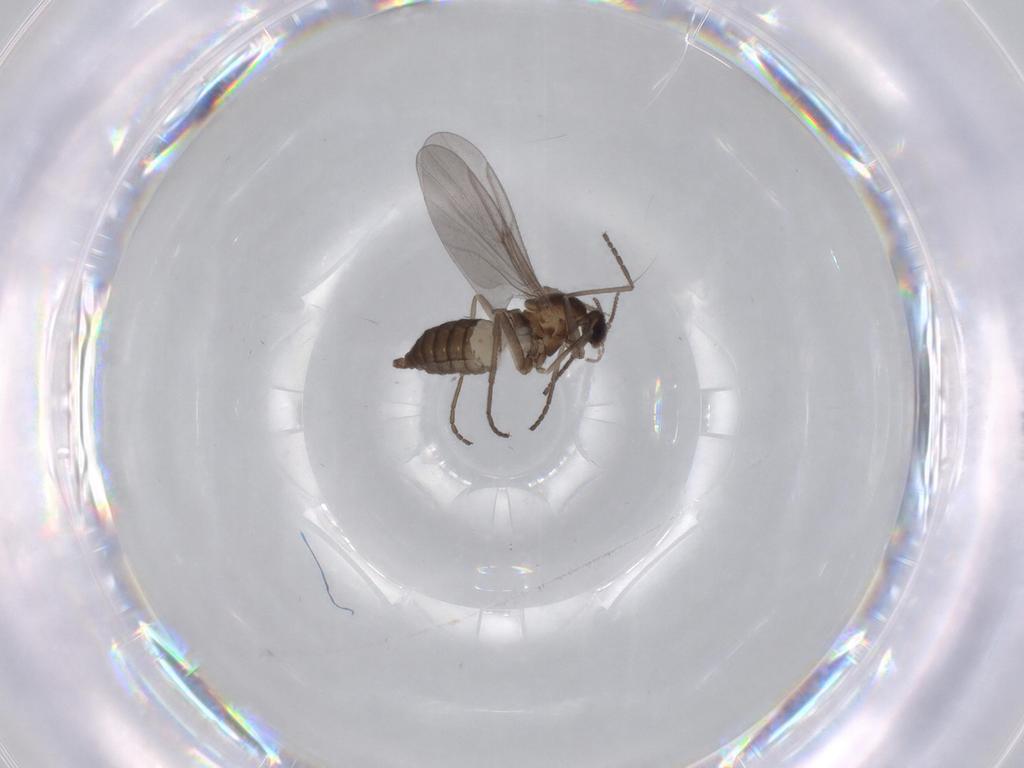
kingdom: Animalia
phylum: Arthropoda
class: Insecta
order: Diptera
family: Cecidomyiidae
